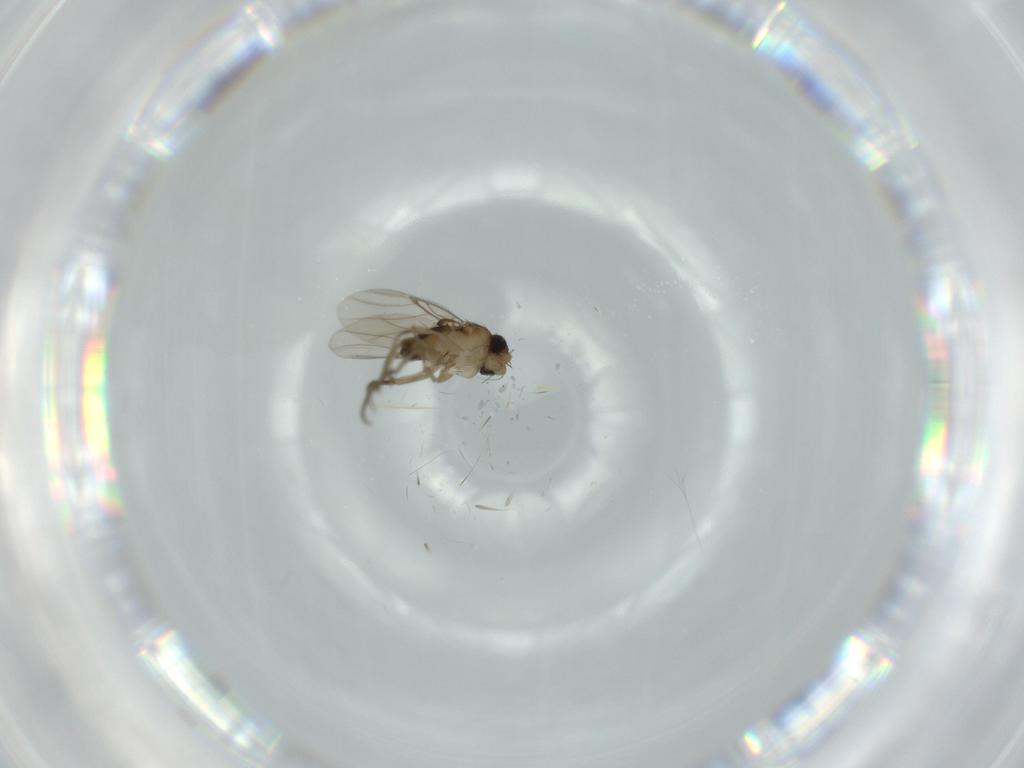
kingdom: Animalia
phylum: Arthropoda
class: Insecta
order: Diptera
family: Phoridae
